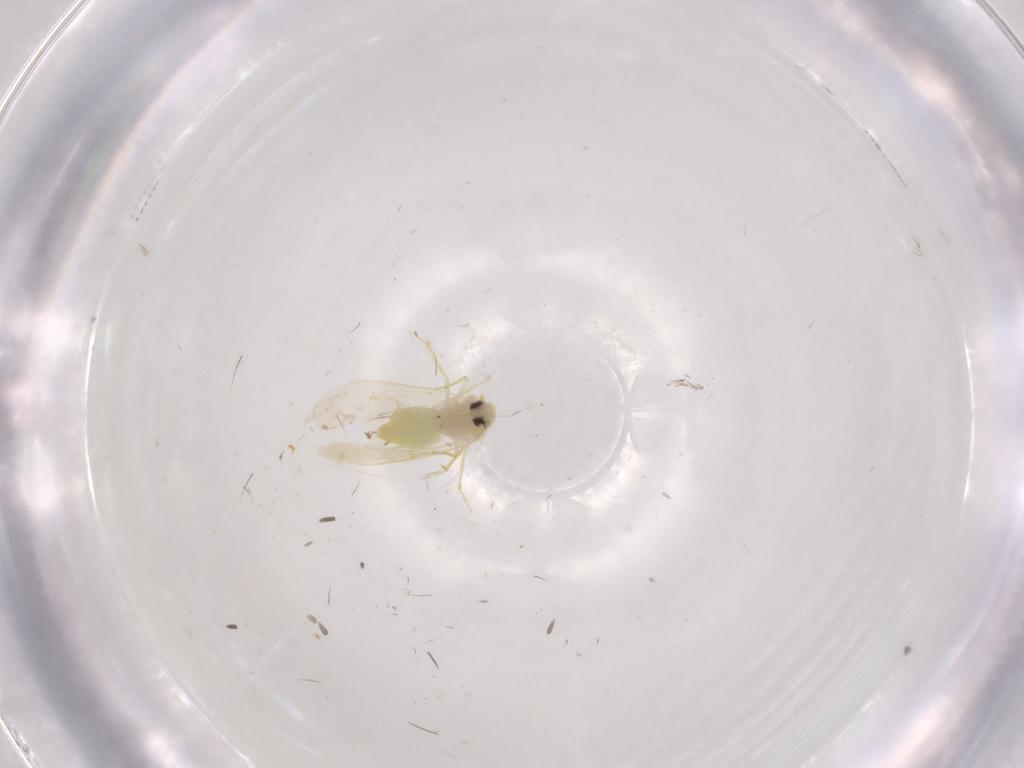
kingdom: Animalia
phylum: Arthropoda
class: Insecta
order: Hemiptera
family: Aleyrodidae
